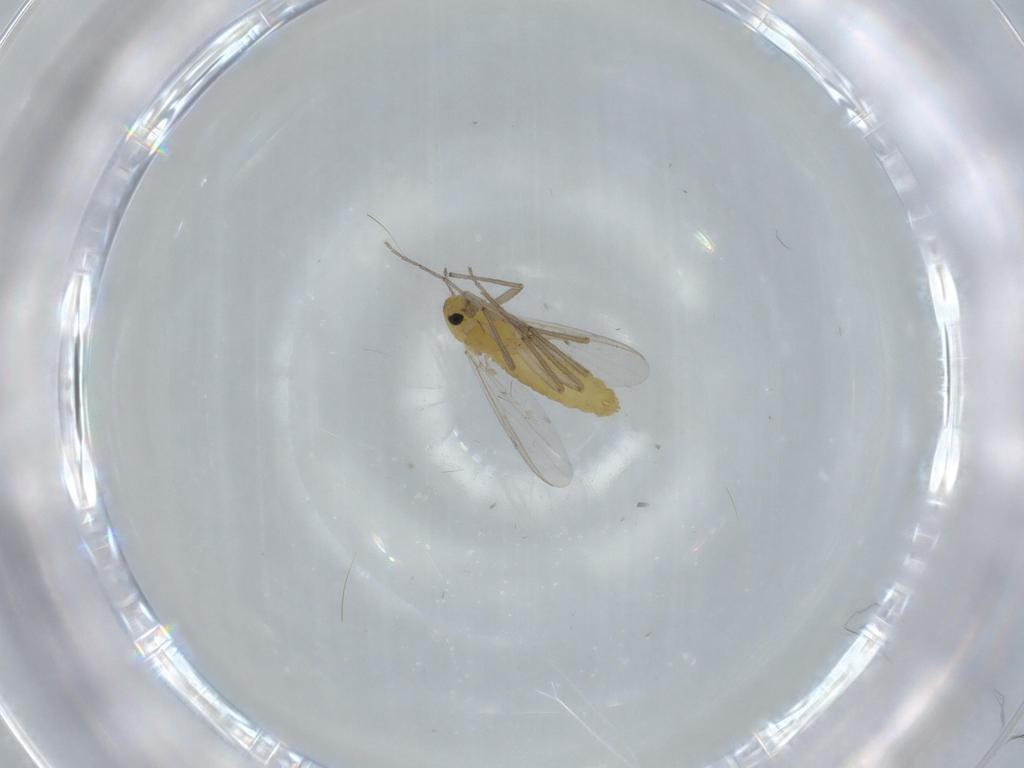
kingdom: Animalia
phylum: Arthropoda
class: Insecta
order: Diptera
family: Chironomidae
